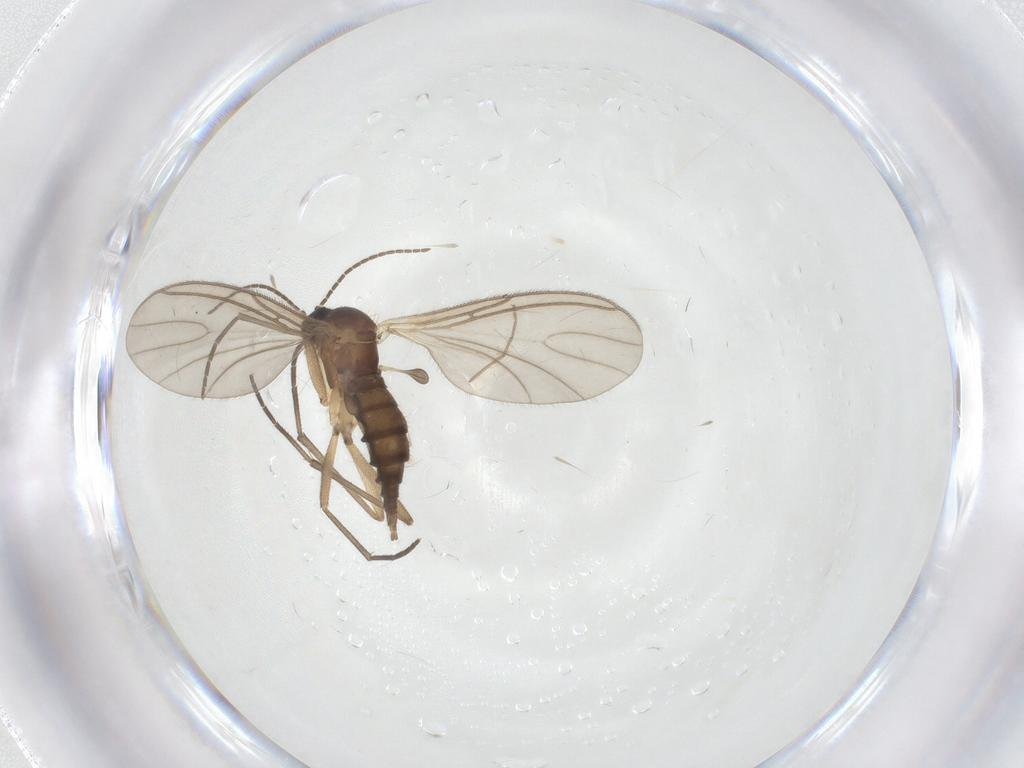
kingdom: Animalia
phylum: Arthropoda
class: Insecta
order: Diptera
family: Sciaridae
